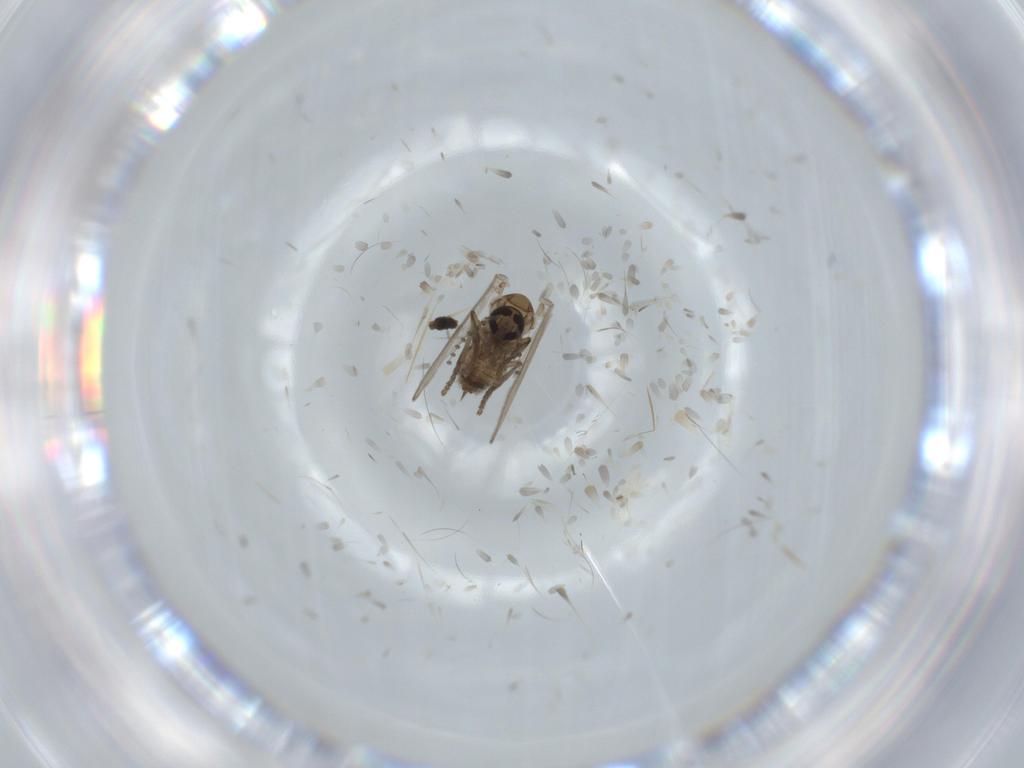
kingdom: Animalia
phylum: Arthropoda
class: Insecta
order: Diptera
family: Psychodidae
